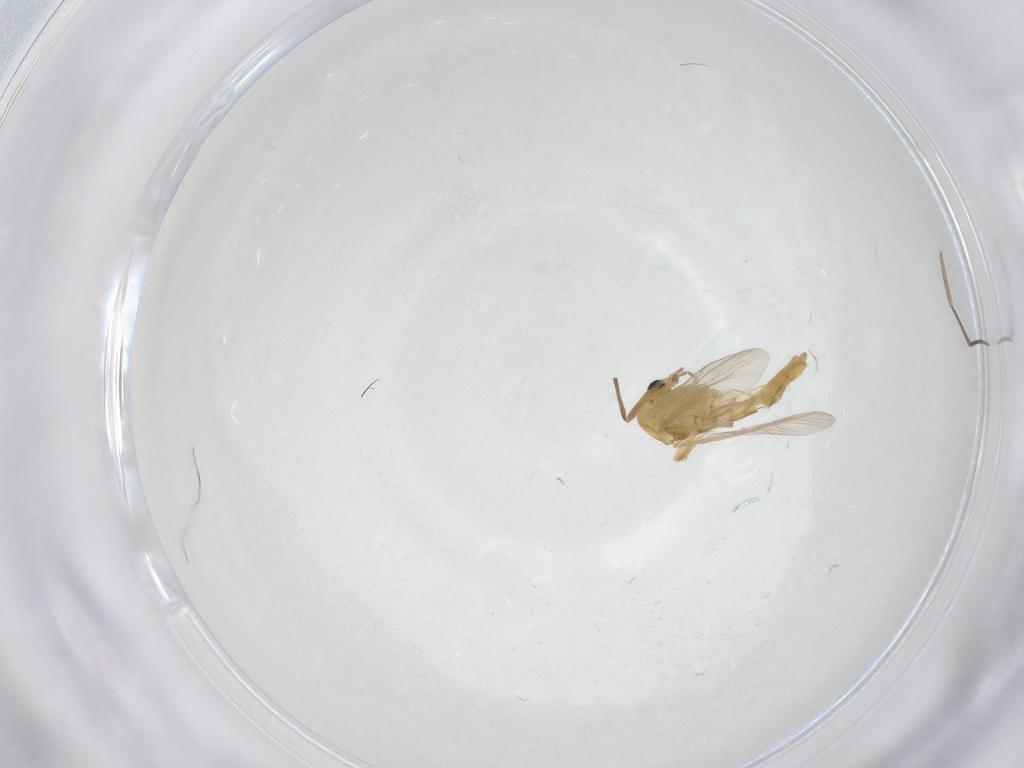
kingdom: Animalia
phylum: Arthropoda
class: Insecta
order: Diptera
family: Sciaridae
